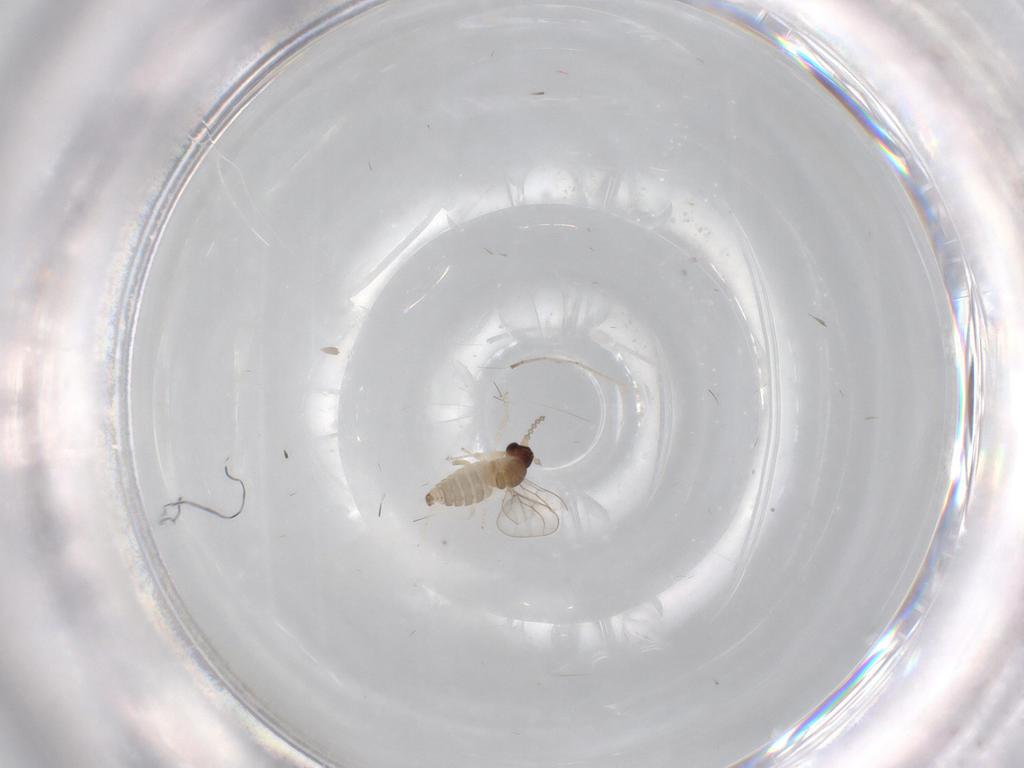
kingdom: Animalia
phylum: Arthropoda
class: Insecta
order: Diptera
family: Cecidomyiidae
